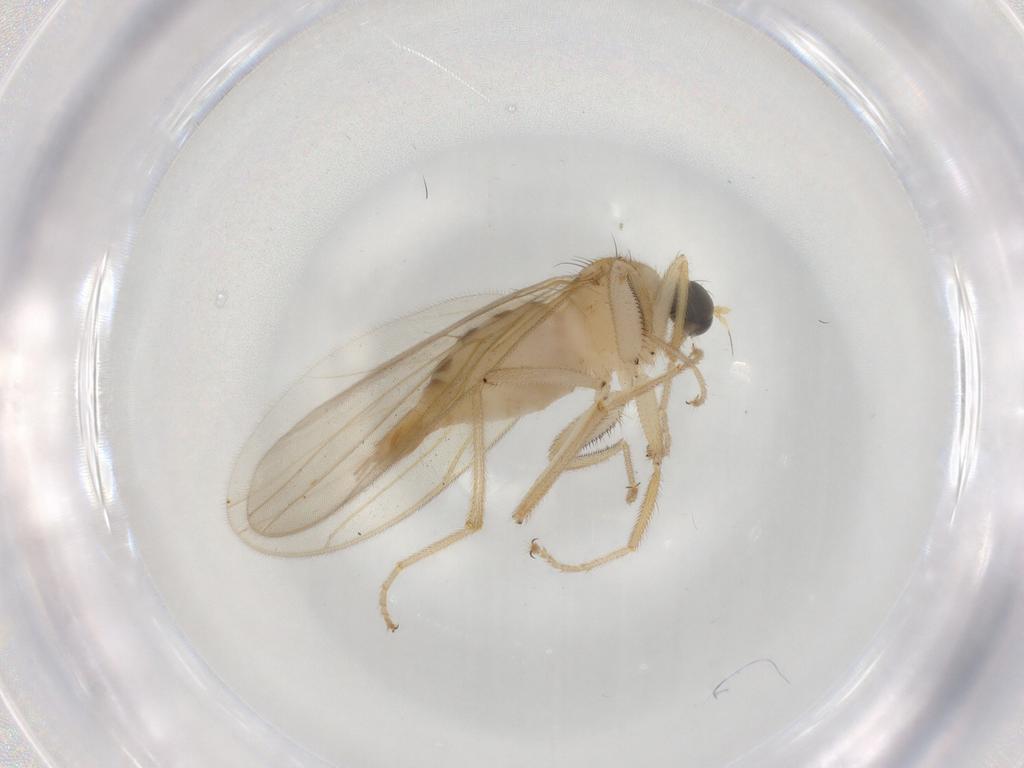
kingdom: Animalia
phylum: Arthropoda
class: Insecta
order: Diptera
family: Hybotidae
